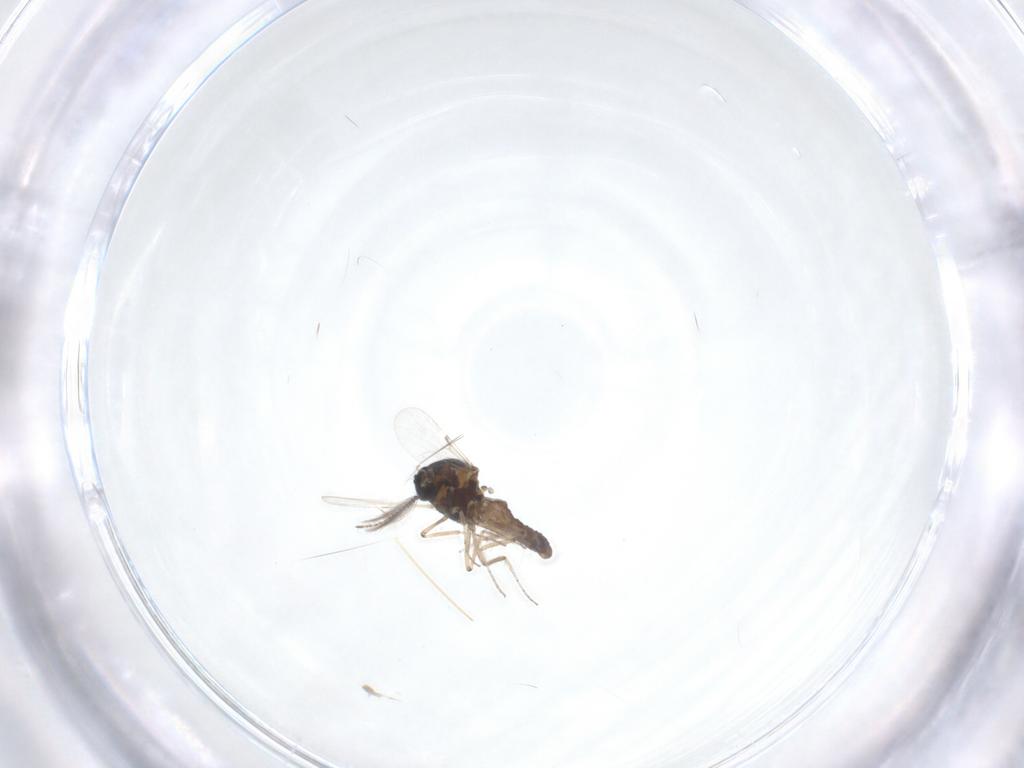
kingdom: Animalia
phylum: Arthropoda
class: Insecta
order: Diptera
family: Ceratopogonidae
